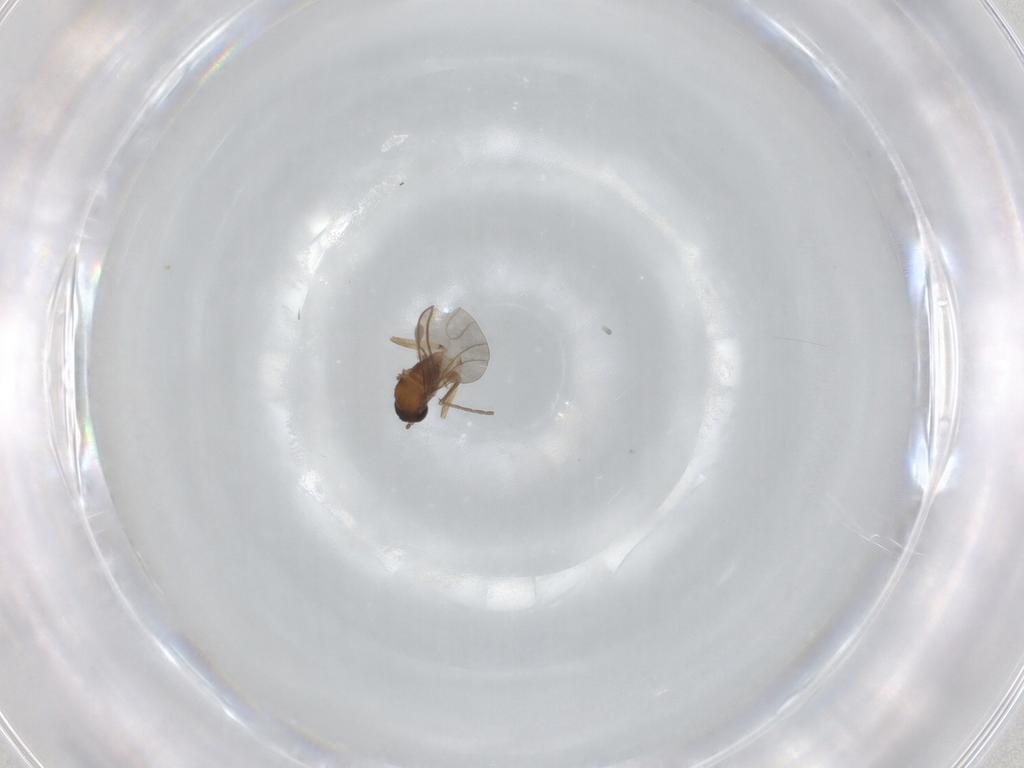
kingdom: Animalia
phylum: Arthropoda
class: Insecta
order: Diptera
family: Sciaridae
